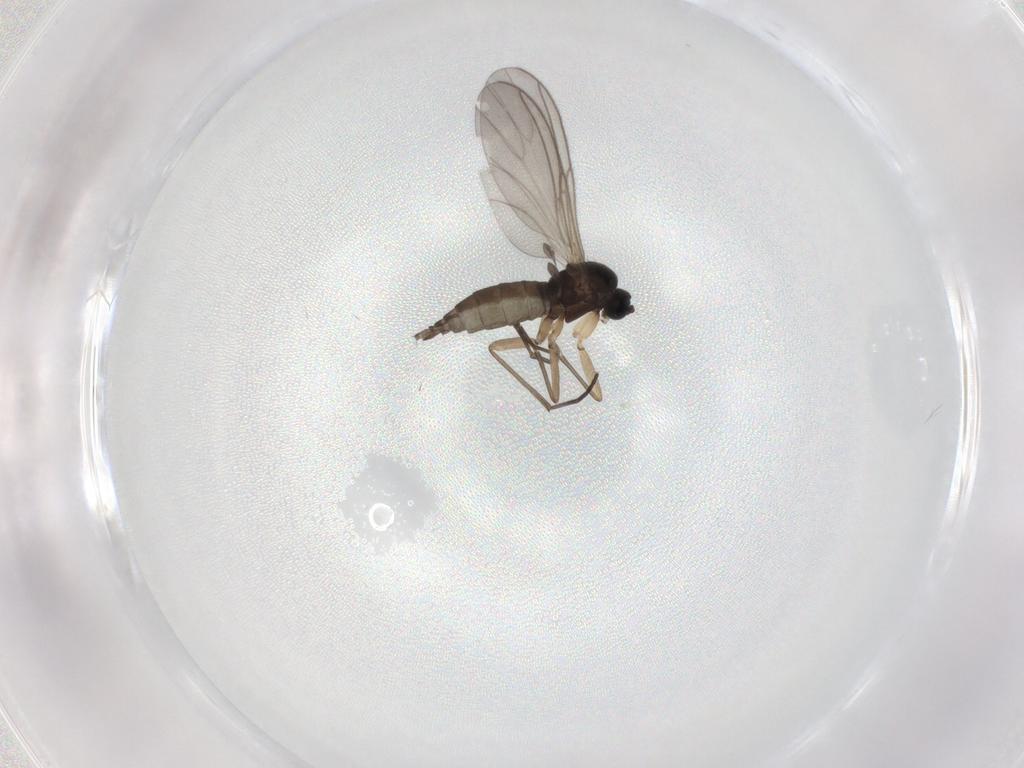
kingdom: Animalia
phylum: Arthropoda
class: Insecta
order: Diptera
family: Sciaridae
